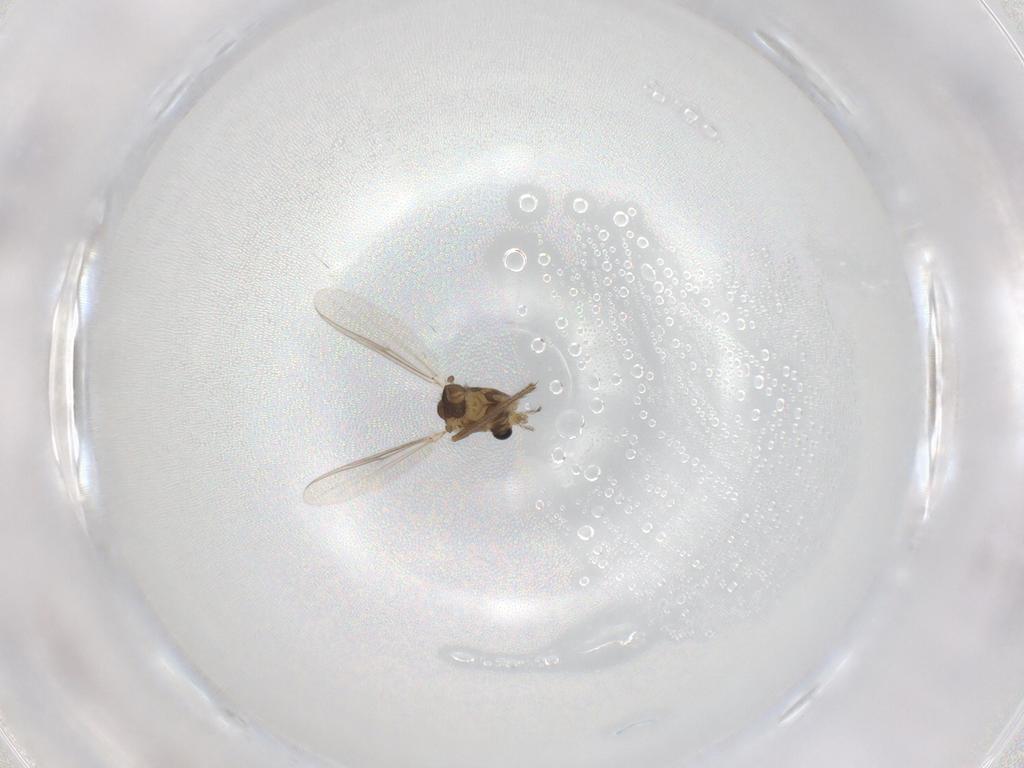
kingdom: Animalia
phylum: Arthropoda
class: Insecta
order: Diptera
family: Chironomidae
